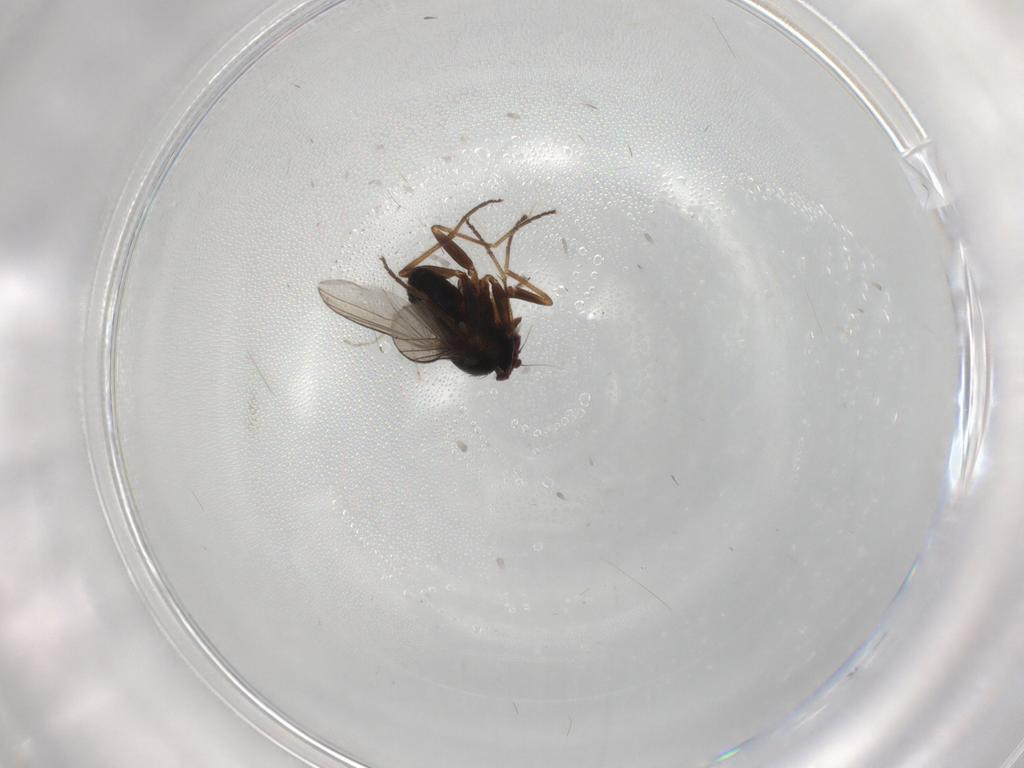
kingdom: Animalia
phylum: Arthropoda
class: Insecta
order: Diptera
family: Dolichopodidae
